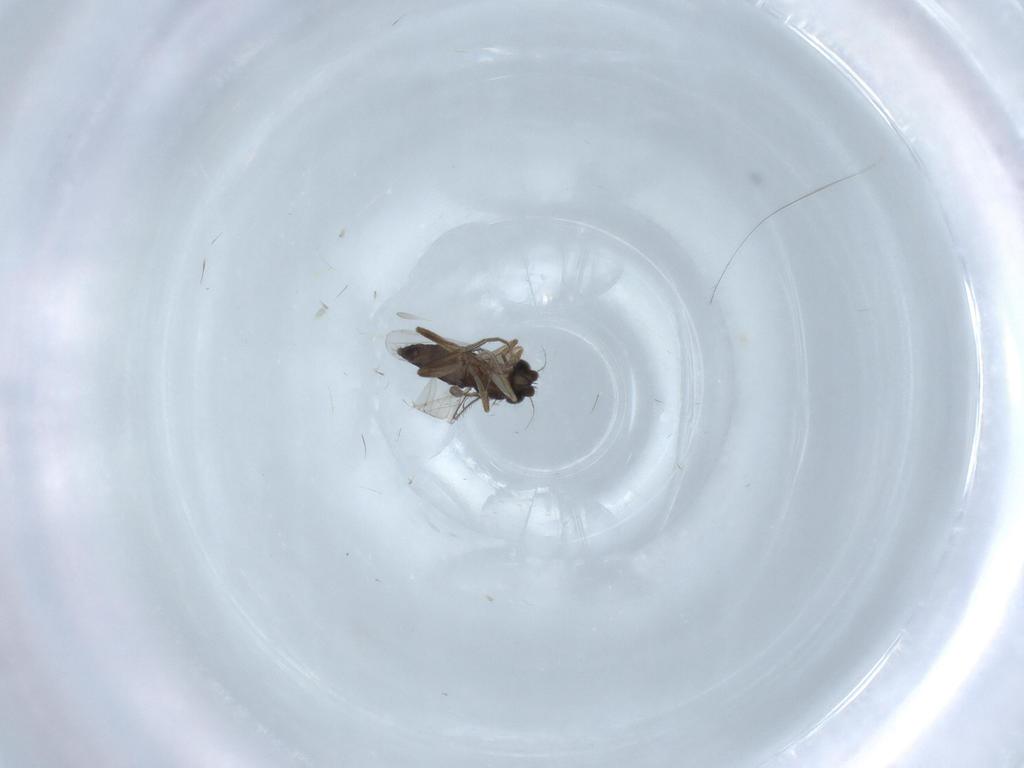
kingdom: Animalia
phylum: Arthropoda
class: Insecta
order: Diptera
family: Phoridae
